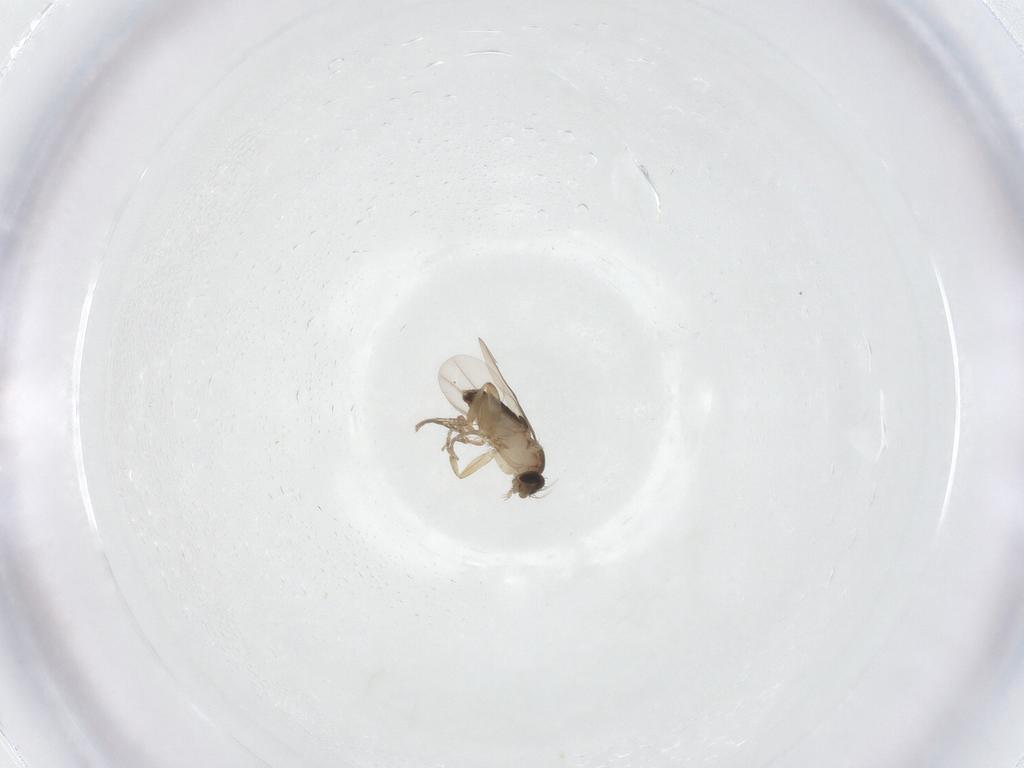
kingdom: Animalia
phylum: Arthropoda
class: Insecta
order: Diptera
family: Phoridae
